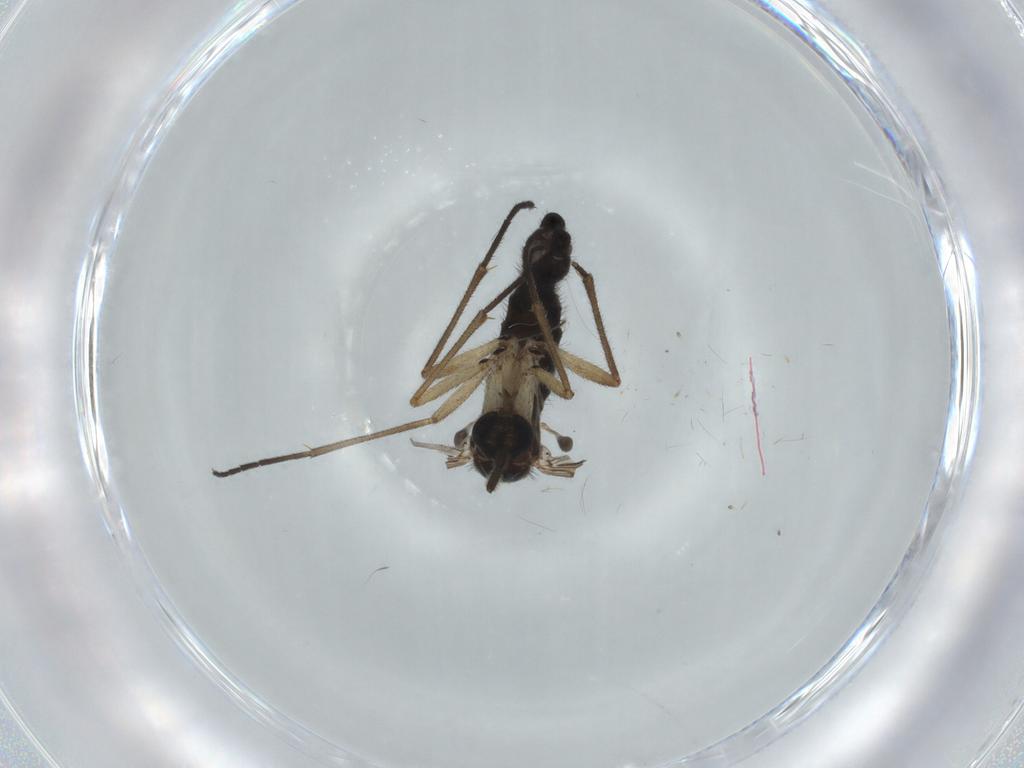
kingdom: Animalia
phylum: Arthropoda
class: Insecta
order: Diptera
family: Sciaridae
